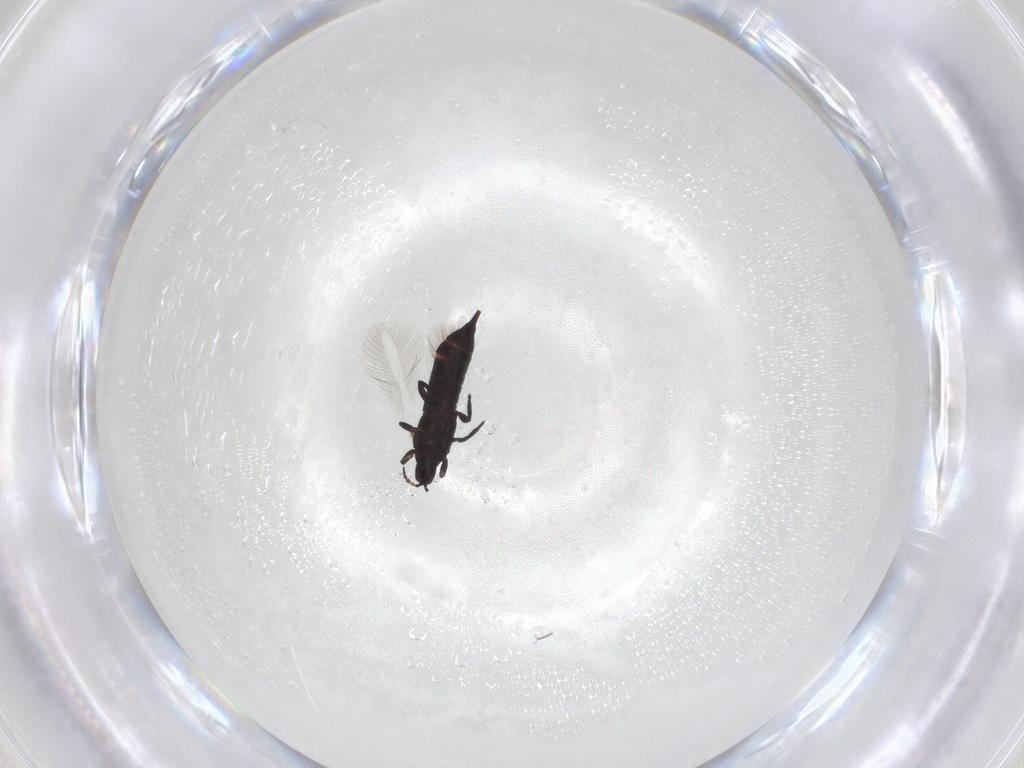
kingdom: Animalia
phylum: Arthropoda
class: Insecta
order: Thysanoptera
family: Phlaeothripidae
